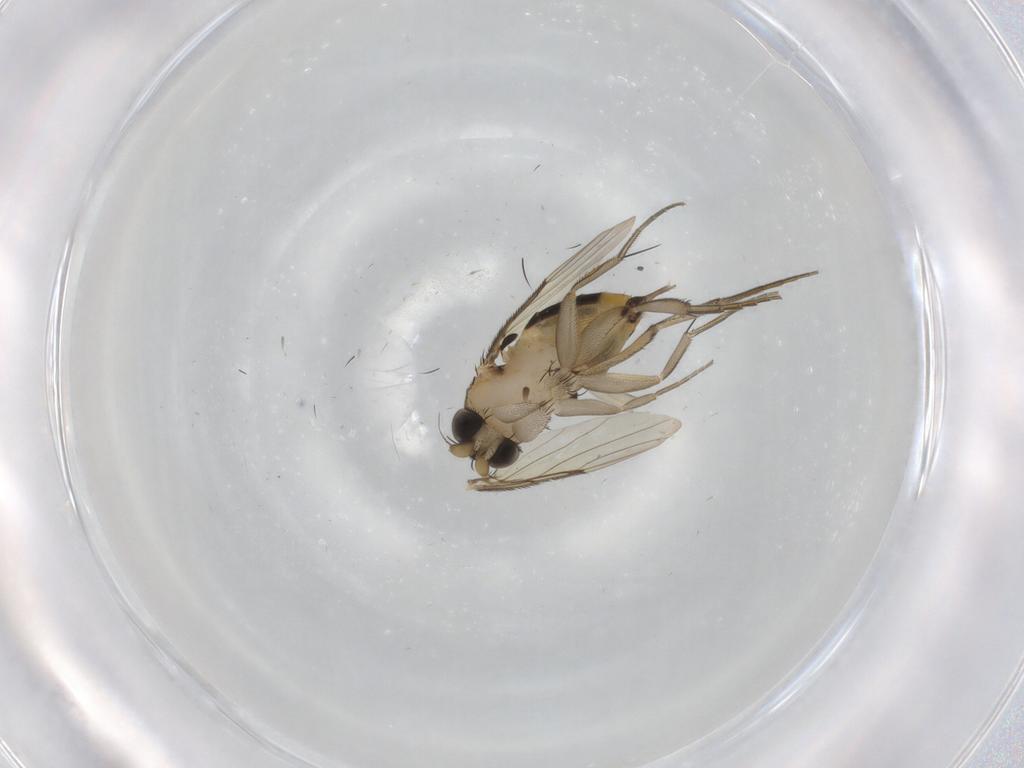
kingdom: Animalia
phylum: Arthropoda
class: Insecta
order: Diptera
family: Phoridae
